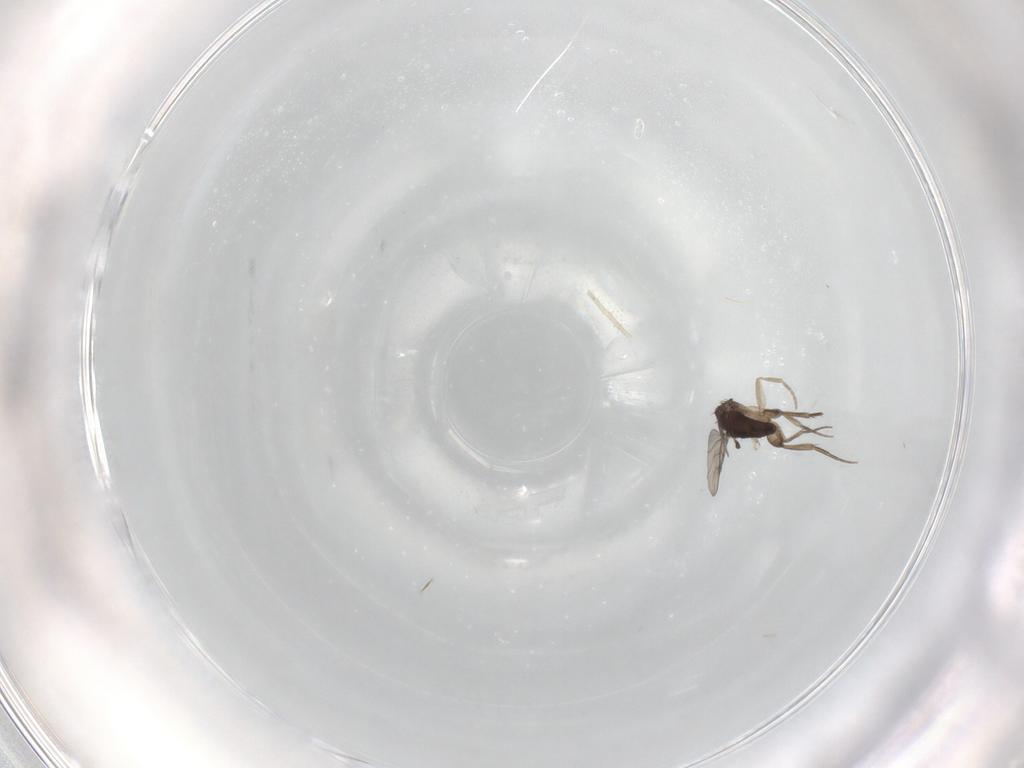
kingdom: Animalia
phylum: Arthropoda
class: Insecta
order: Diptera
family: Phoridae
